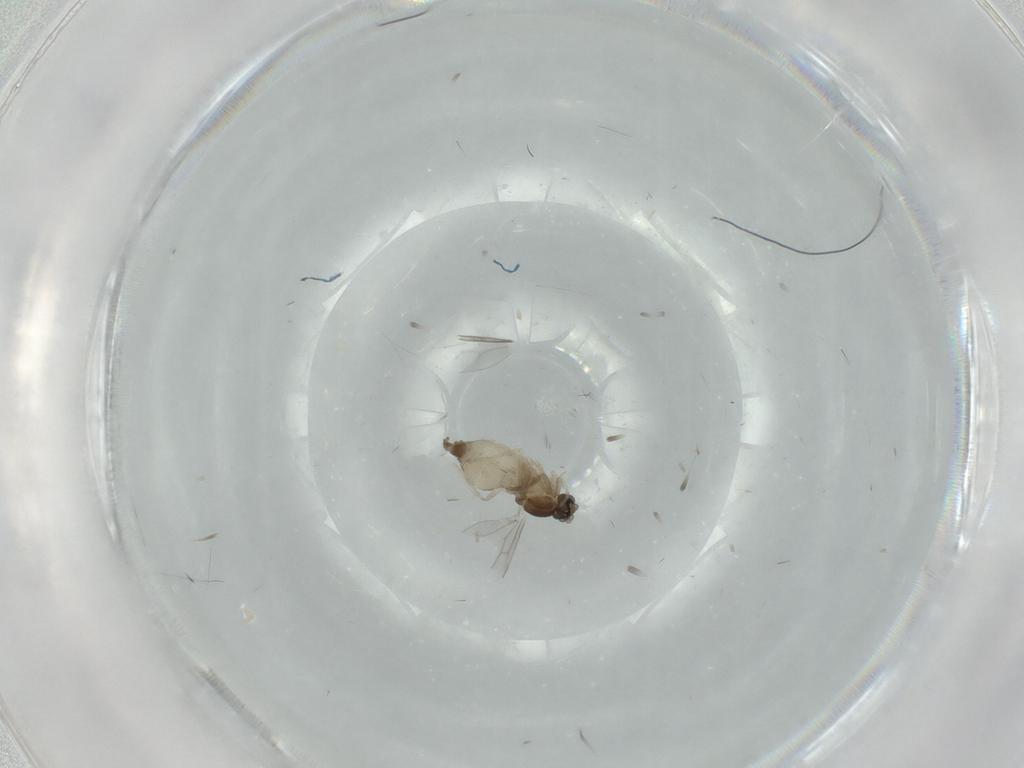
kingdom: Animalia
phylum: Arthropoda
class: Insecta
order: Diptera
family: Cecidomyiidae
